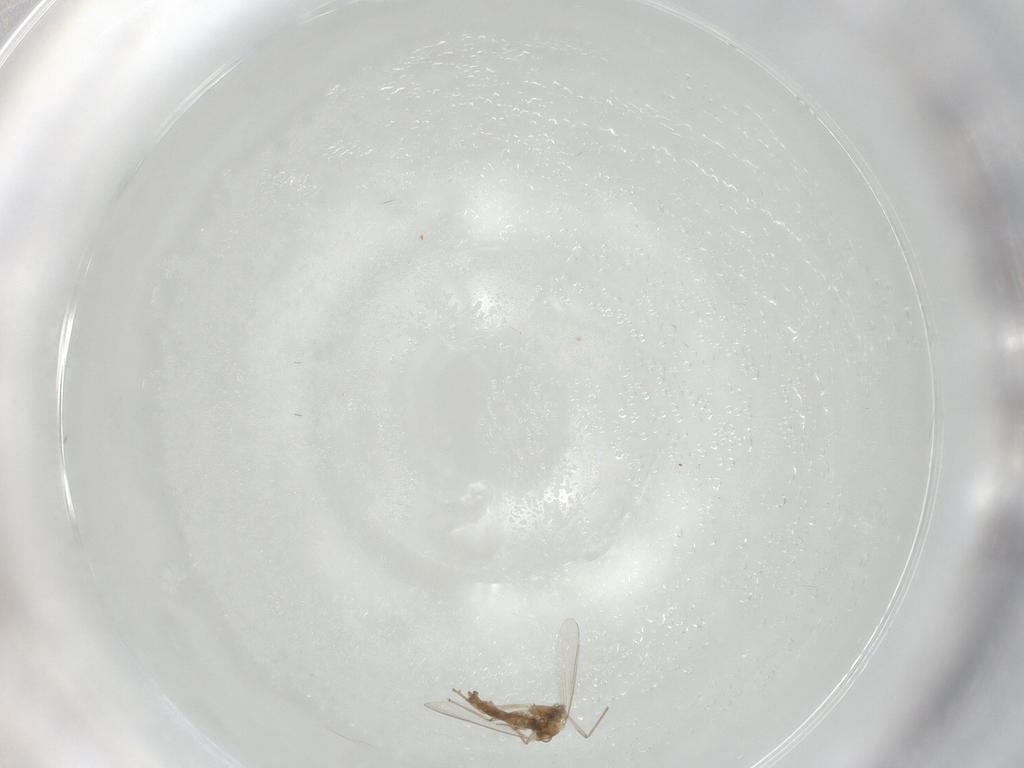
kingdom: Animalia
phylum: Arthropoda
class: Insecta
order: Diptera
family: Chironomidae
